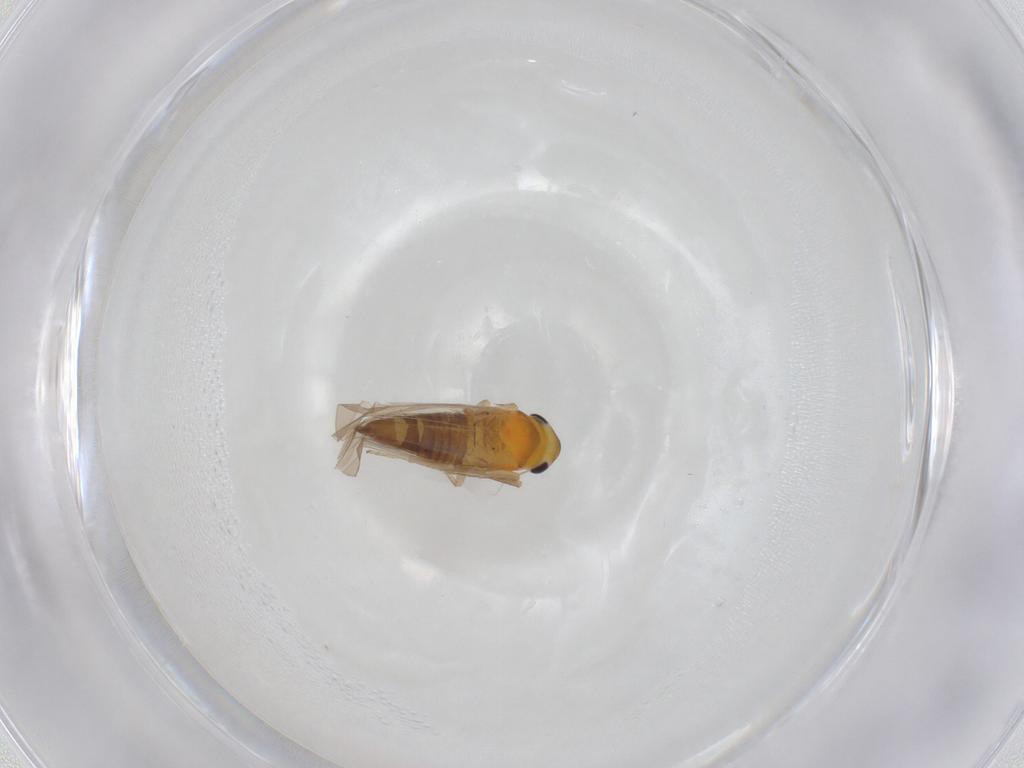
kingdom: Animalia
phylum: Arthropoda
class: Insecta
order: Hemiptera
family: Cicadellidae
